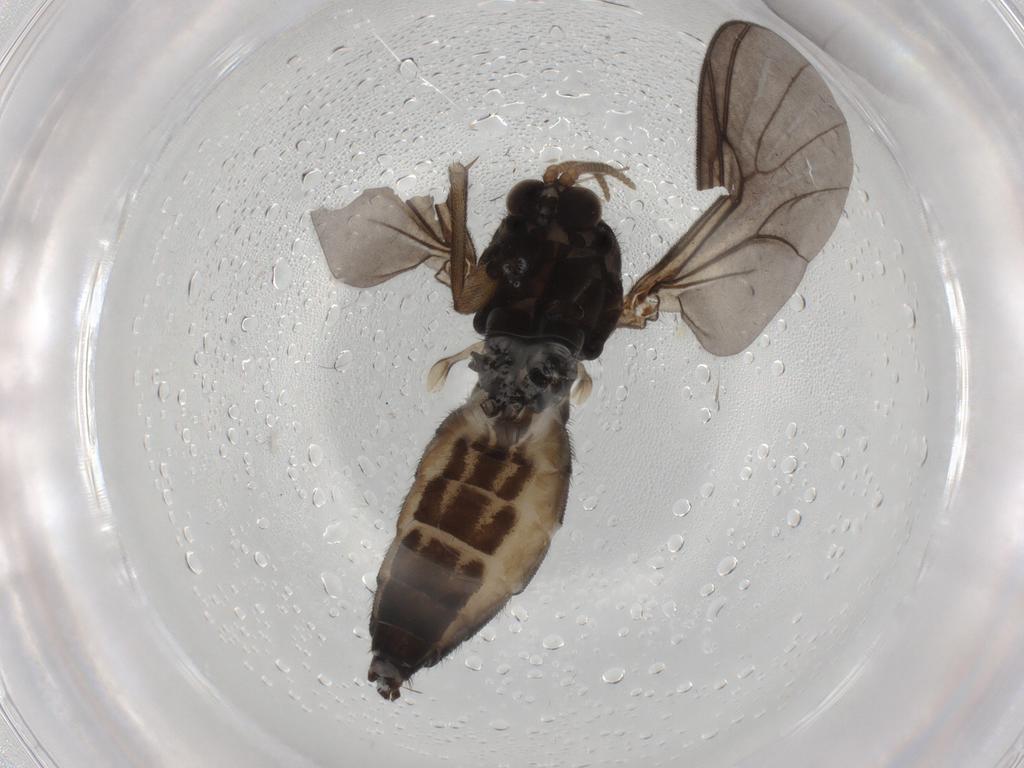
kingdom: Animalia
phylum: Arthropoda
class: Insecta
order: Diptera
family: Mycetophilidae
